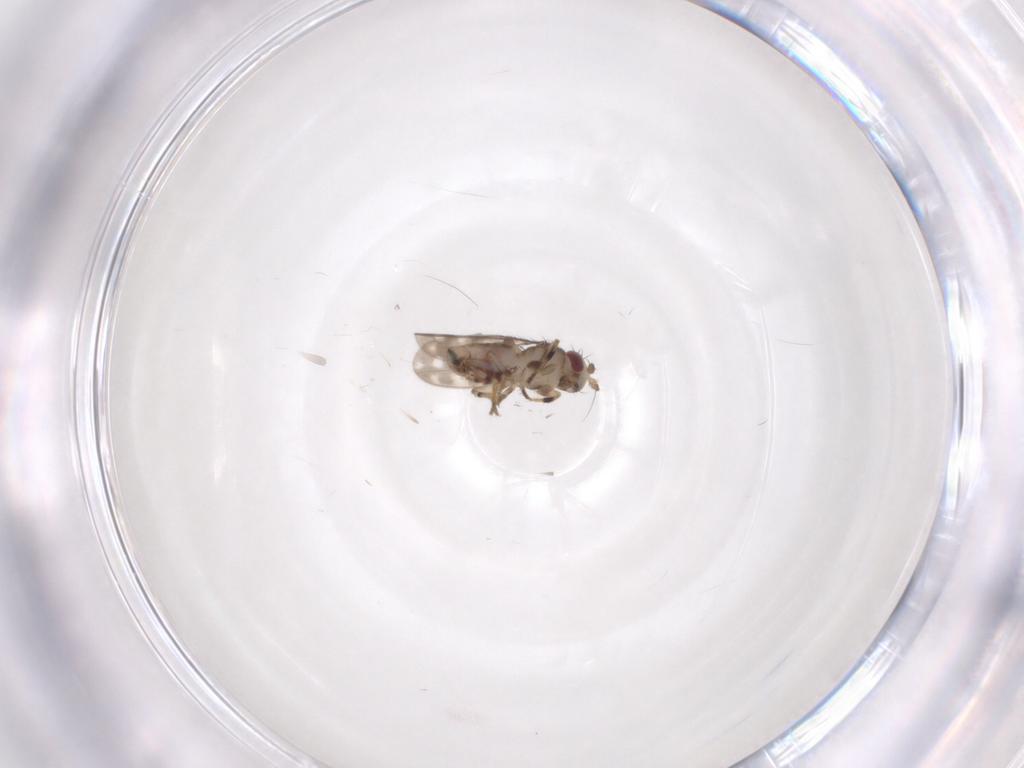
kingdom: Animalia
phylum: Arthropoda
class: Insecta
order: Diptera
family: Sphaeroceridae
